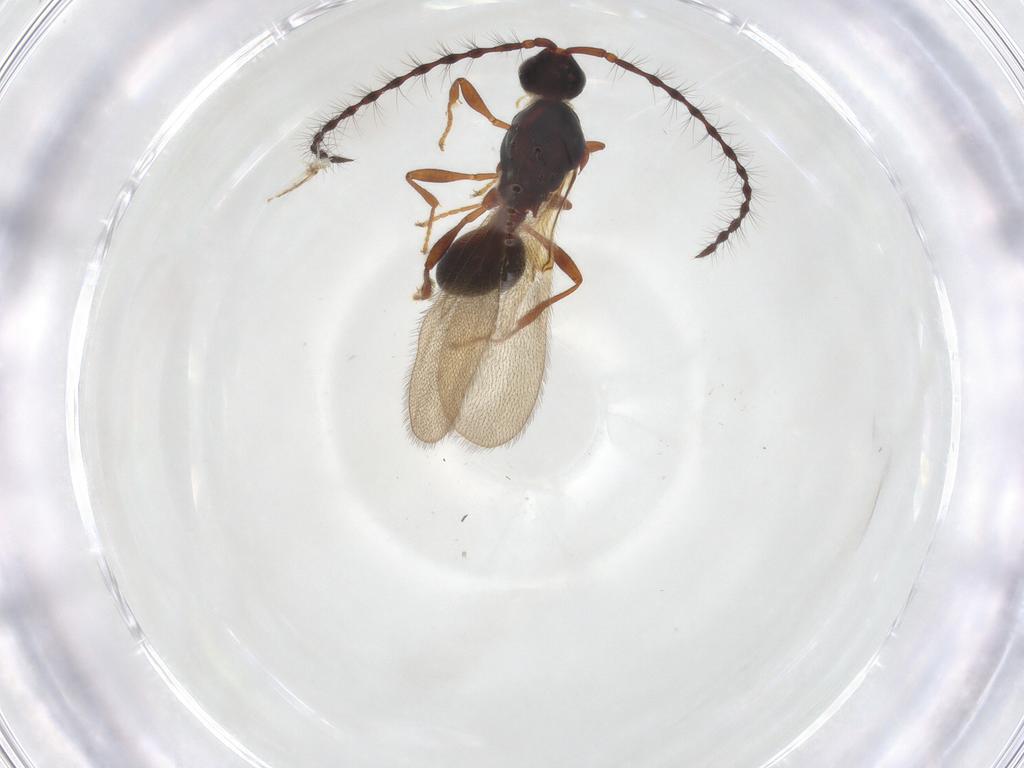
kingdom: Animalia
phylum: Arthropoda
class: Insecta
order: Hymenoptera
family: Diapriidae
